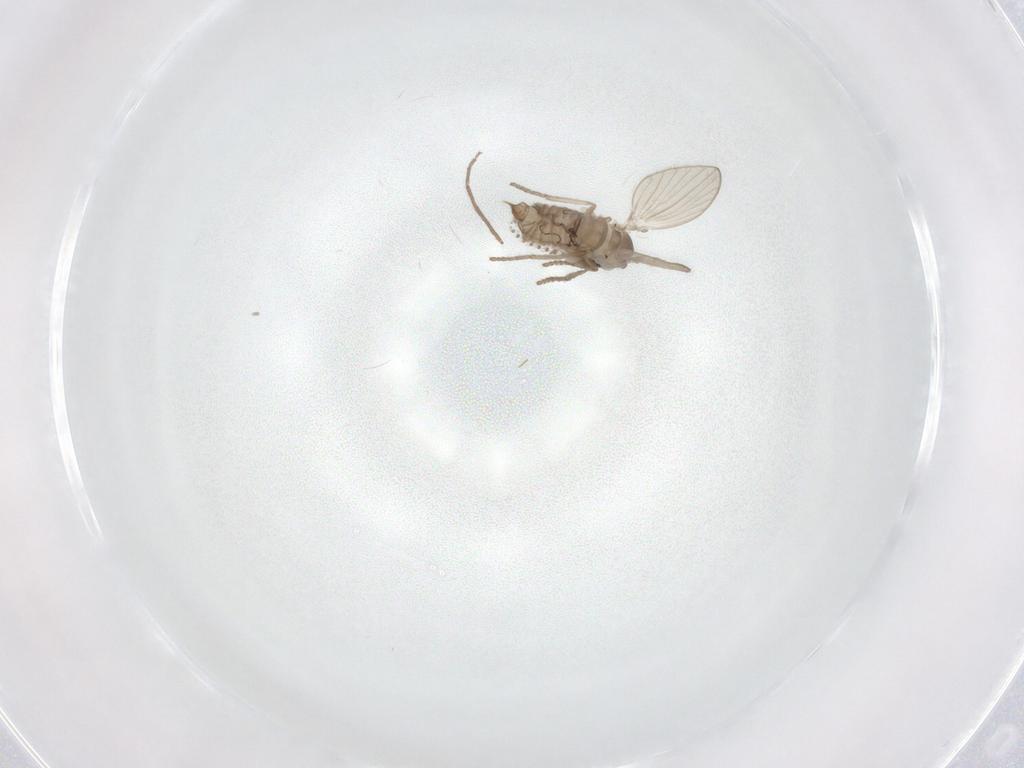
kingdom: Animalia
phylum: Arthropoda
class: Insecta
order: Diptera
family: Psychodidae
